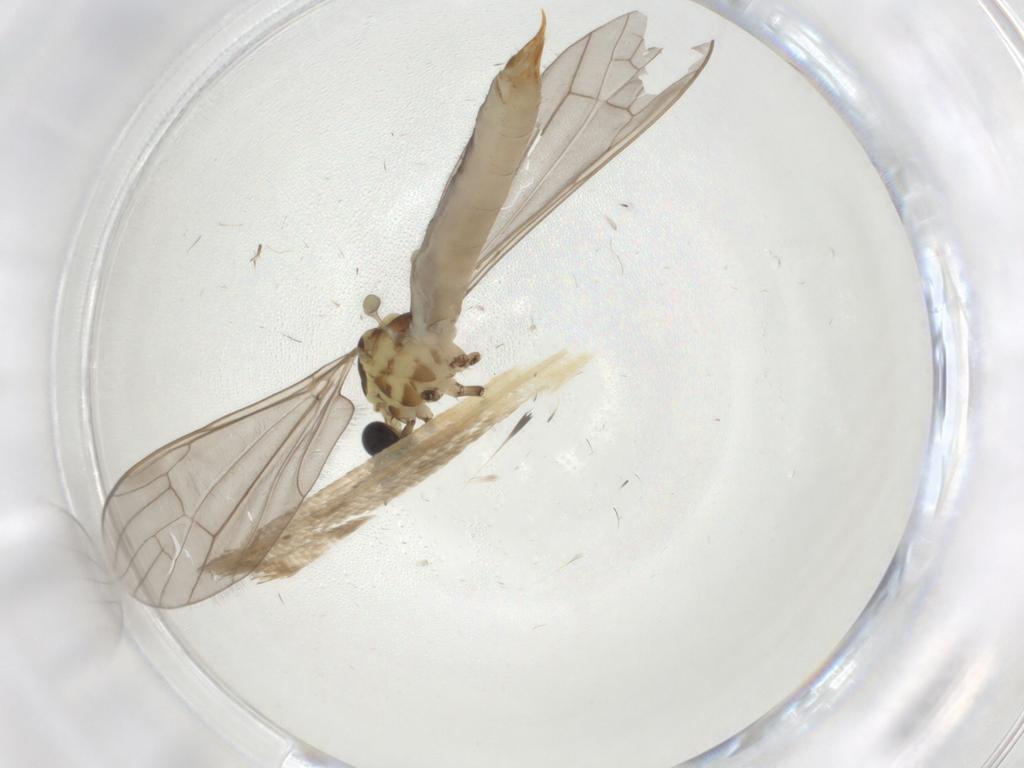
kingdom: Animalia
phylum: Arthropoda
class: Insecta
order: Diptera
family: Limoniidae
